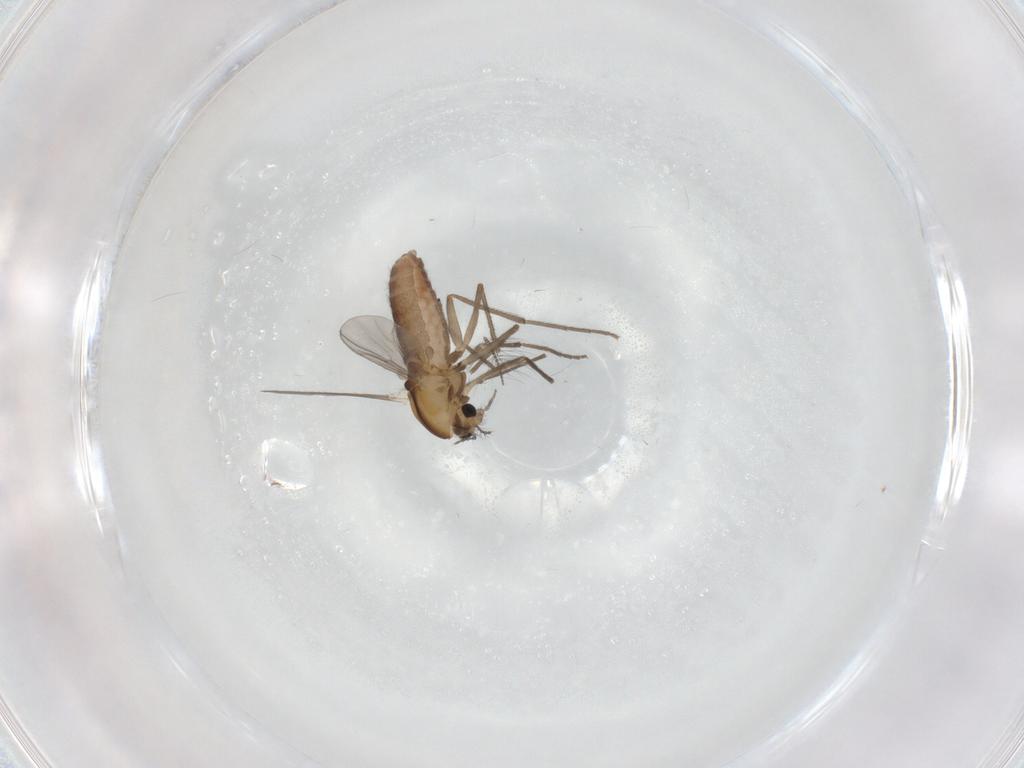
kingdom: Animalia
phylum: Arthropoda
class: Insecta
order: Diptera
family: Chironomidae
